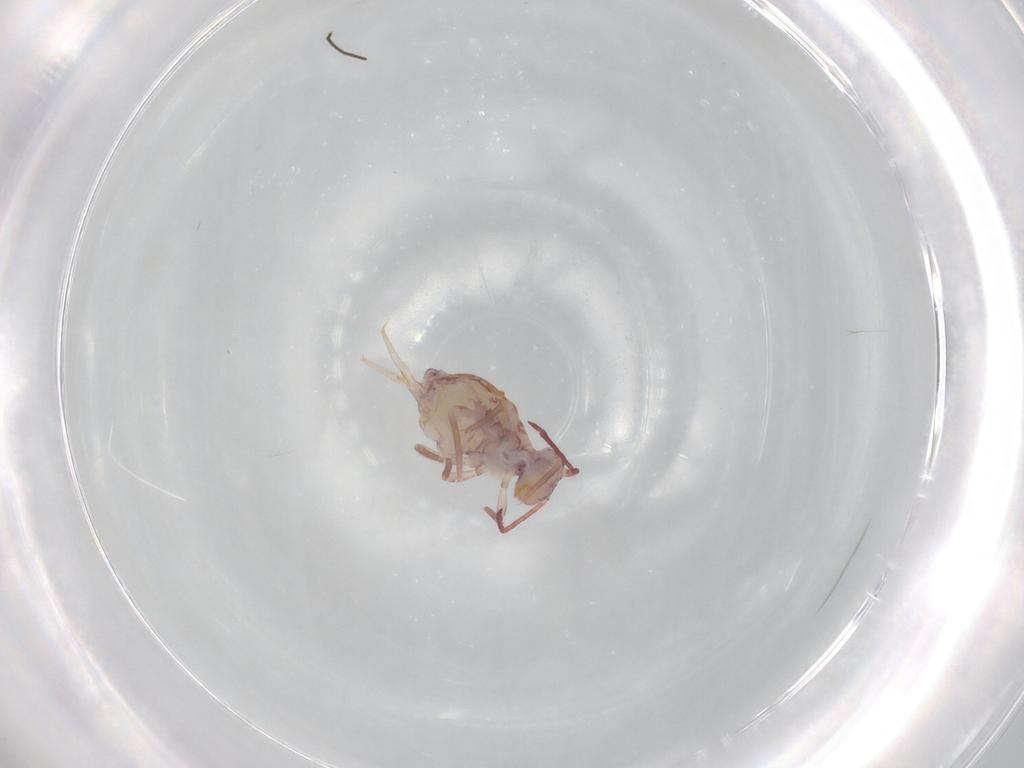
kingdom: Animalia
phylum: Arthropoda
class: Collembola
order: Symphypleona
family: Dicyrtomidae
